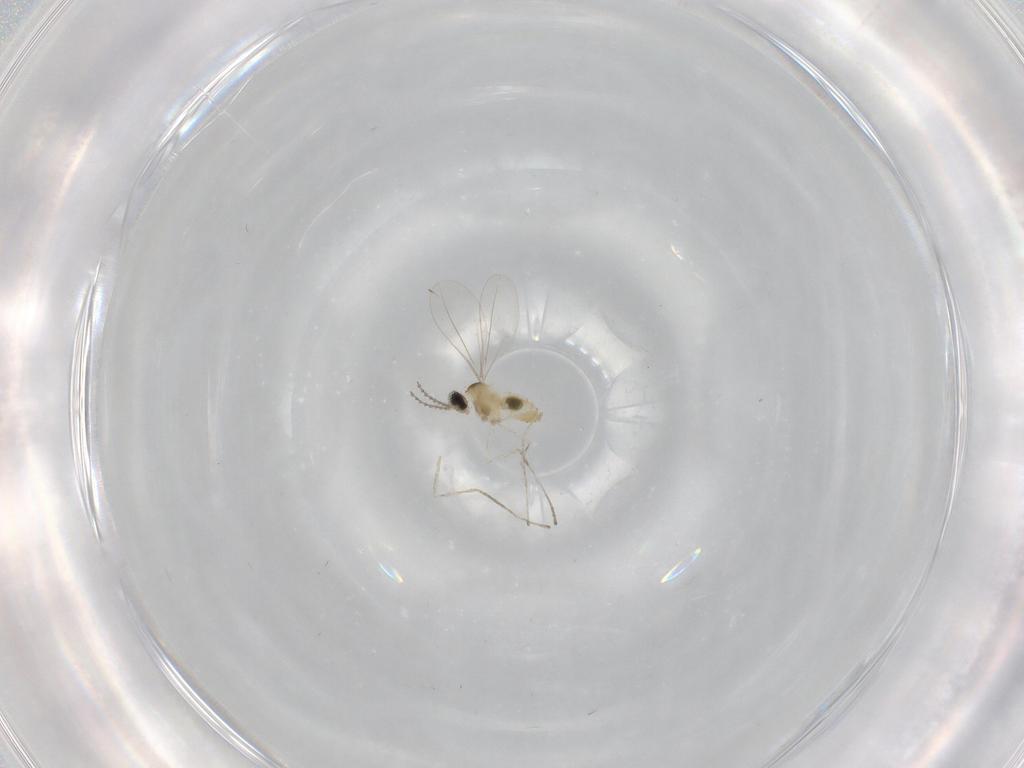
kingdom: Animalia
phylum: Arthropoda
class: Insecta
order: Diptera
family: Cecidomyiidae
